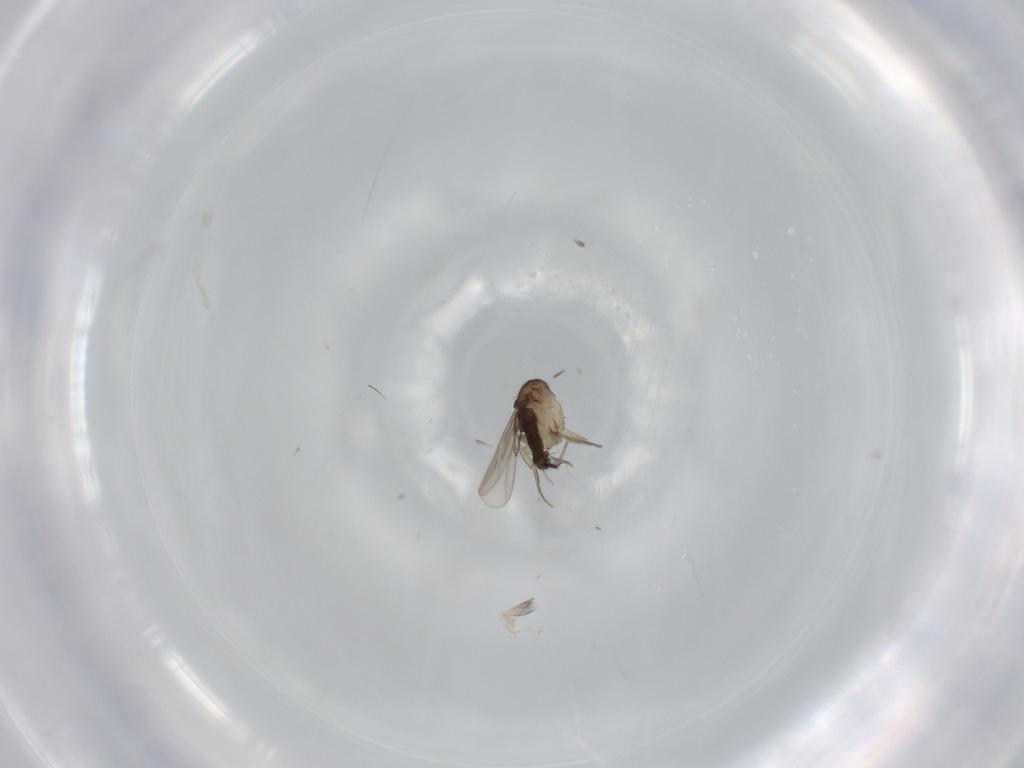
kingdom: Animalia
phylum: Arthropoda
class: Insecta
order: Diptera
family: Phoridae
